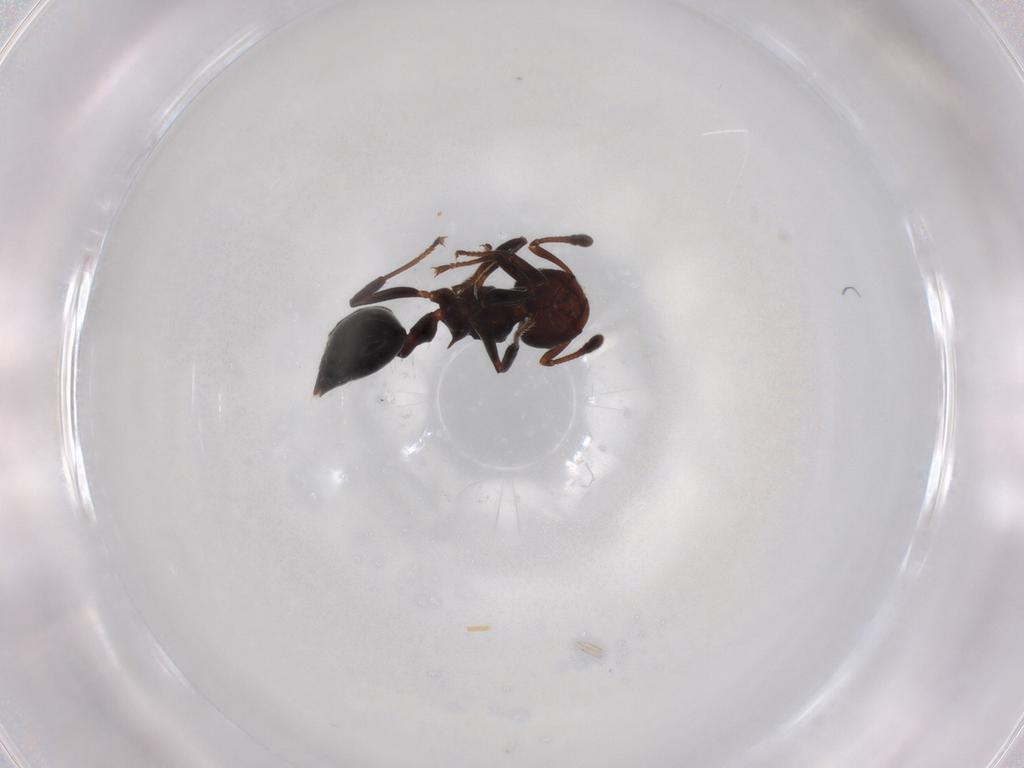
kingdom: Animalia
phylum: Arthropoda
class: Insecta
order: Hymenoptera
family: Formicidae
